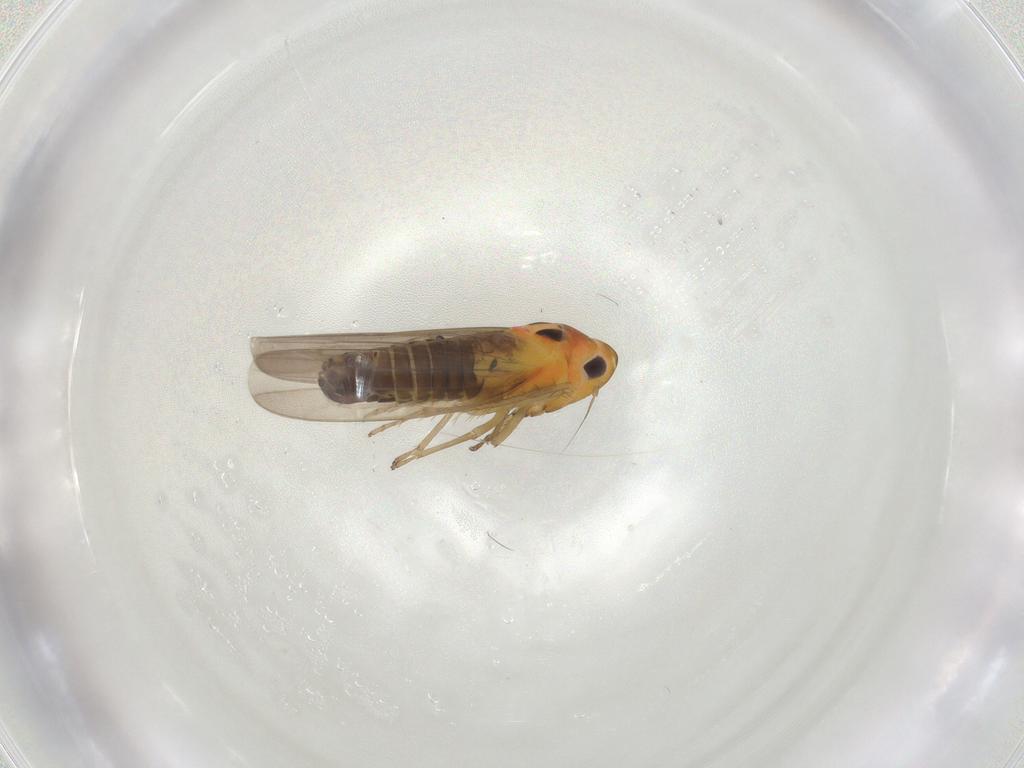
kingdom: Animalia
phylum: Arthropoda
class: Insecta
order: Hemiptera
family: Cicadellidae
